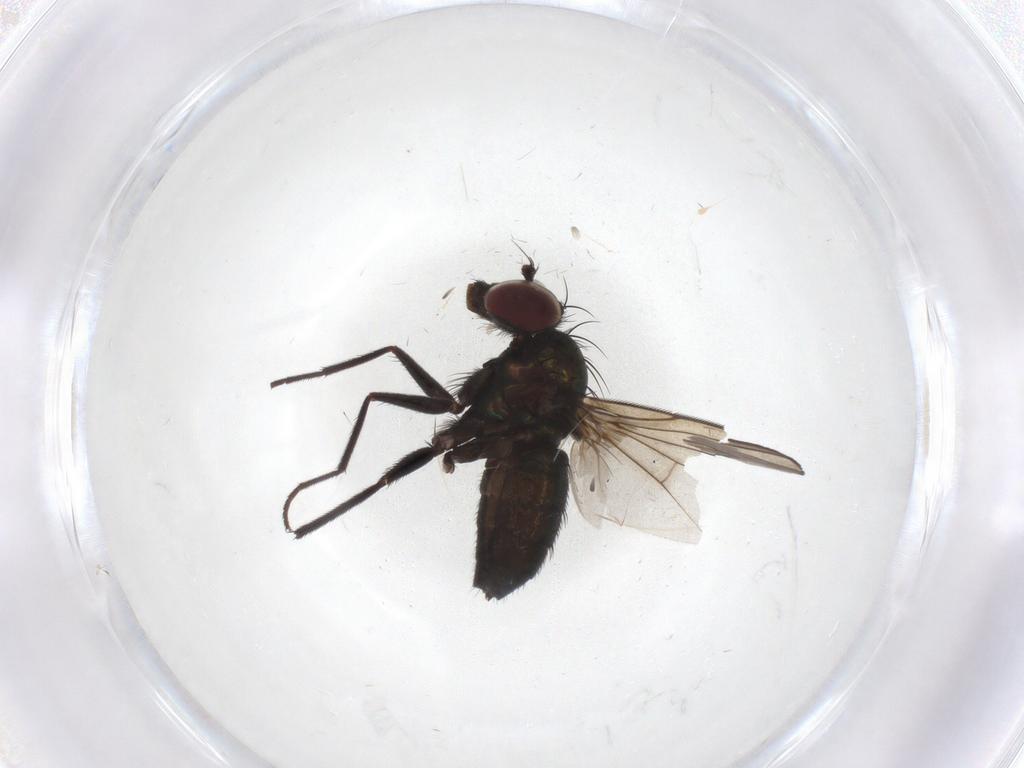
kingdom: Animalia
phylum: Arthropoda
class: Insecta
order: Diptera
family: Dolichopodidae
